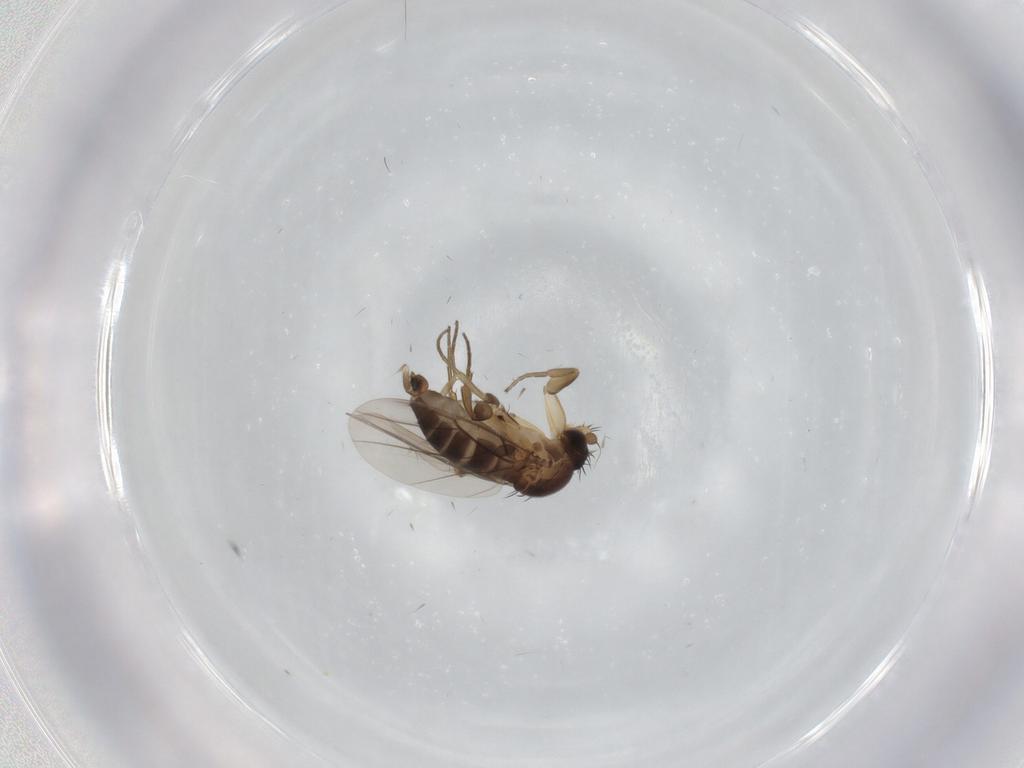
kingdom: Animalia
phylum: Arthropoda
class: Insecta
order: Diptera
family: Phoridae
